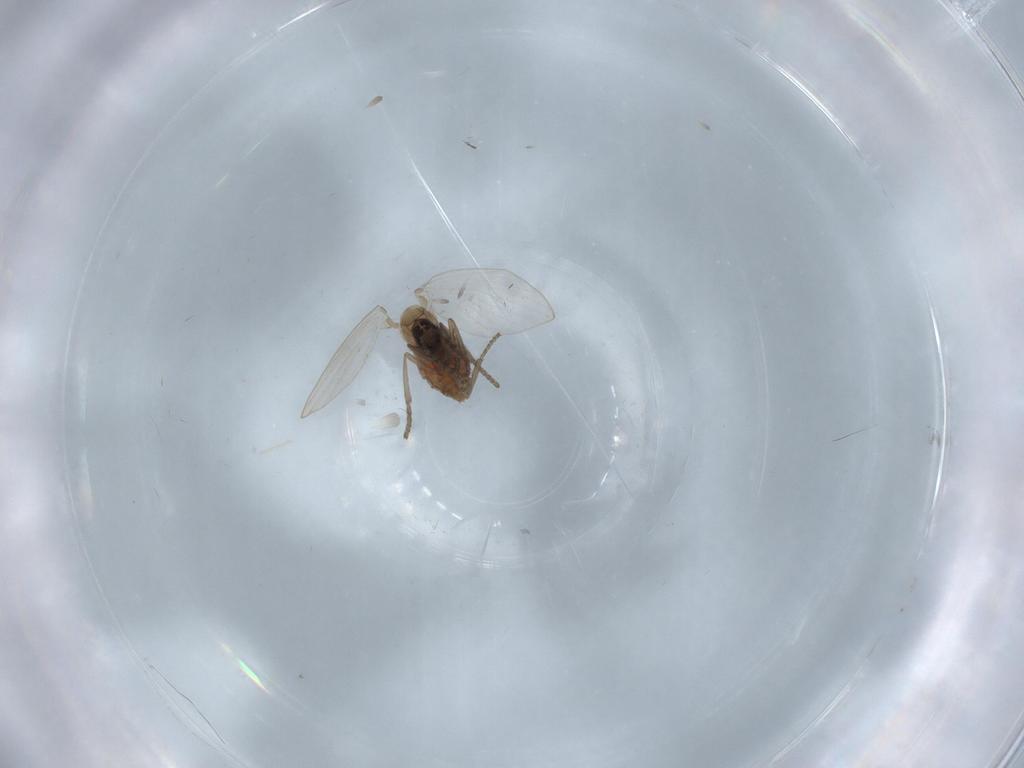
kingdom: Animalia
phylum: Arthropoda
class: Insecta
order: Diptera
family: Psychodidae
